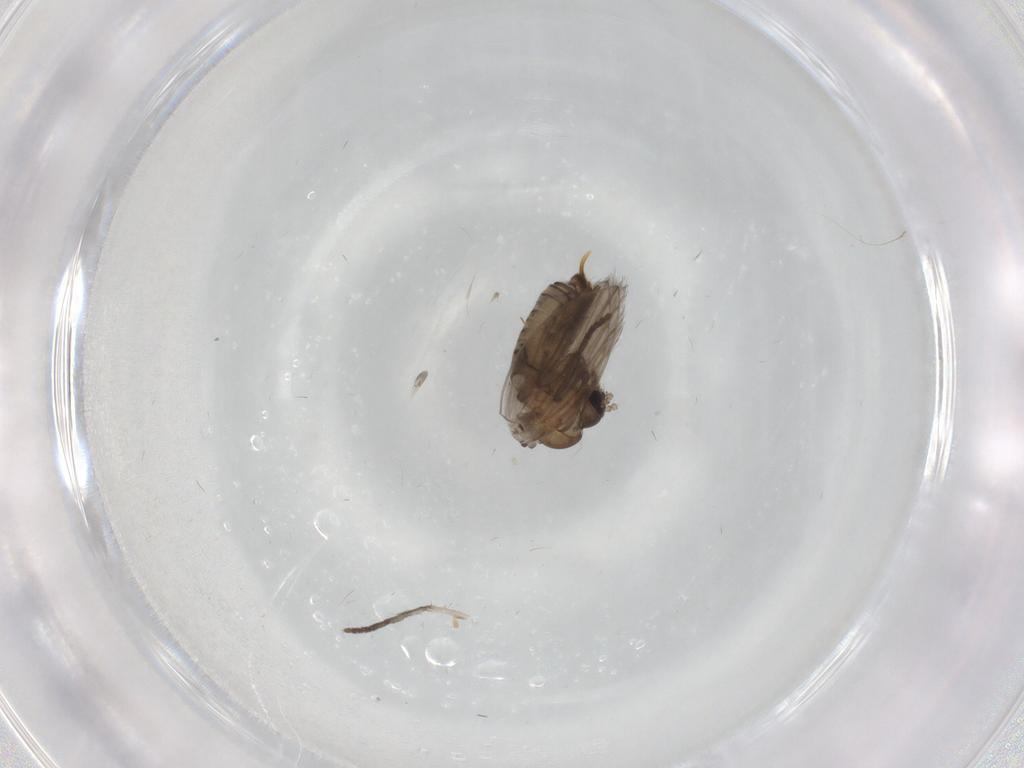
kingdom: Animalia
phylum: Arthropoda
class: Insecta
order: Diptera
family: Psychodidae
